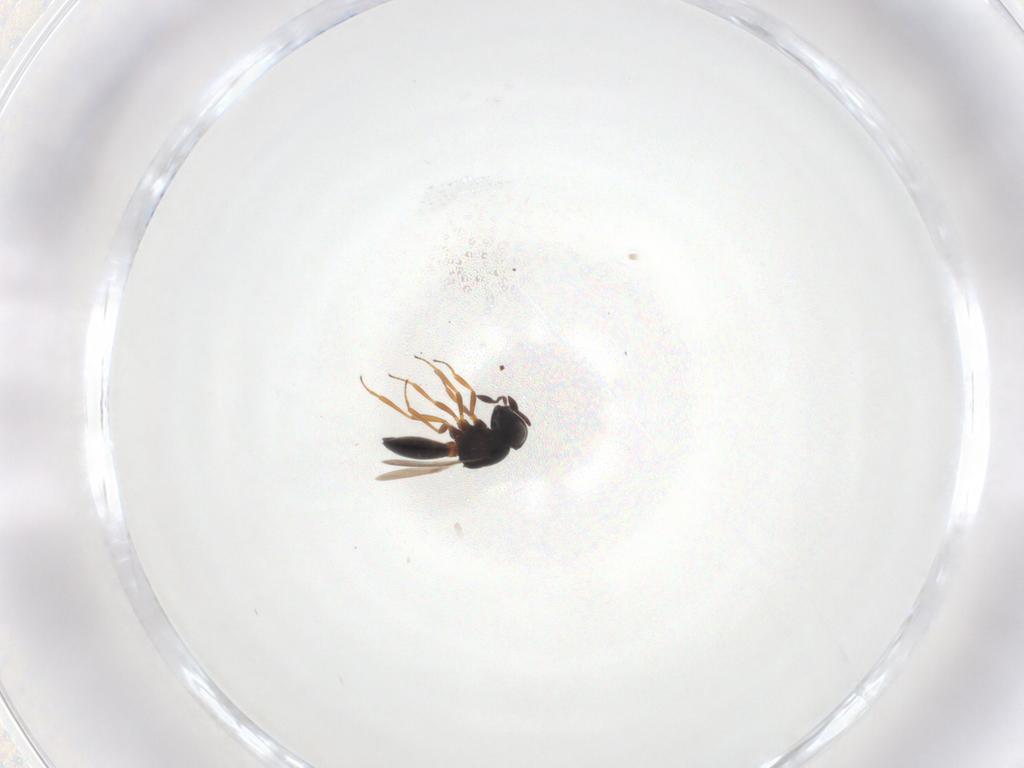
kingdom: Animalia
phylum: Arthropoda
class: Insecta
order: Hymenoptera
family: Scelionidae
